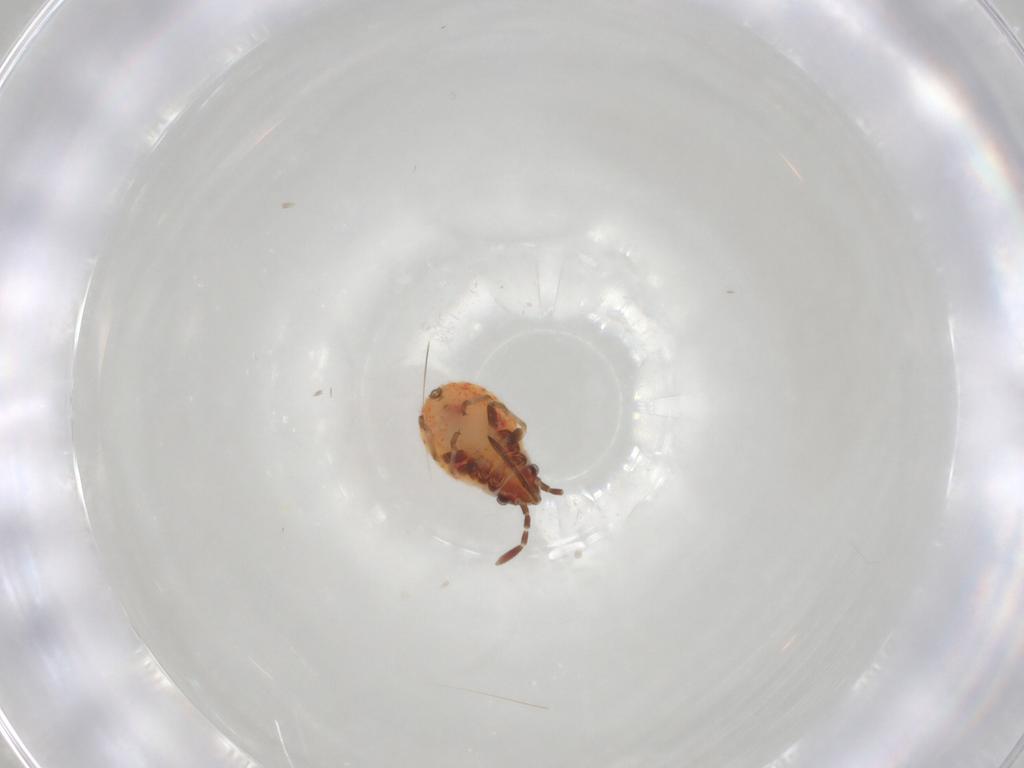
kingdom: Animalia
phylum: Arthropoda
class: Insecta
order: Hemiptera
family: Lygaeidae
